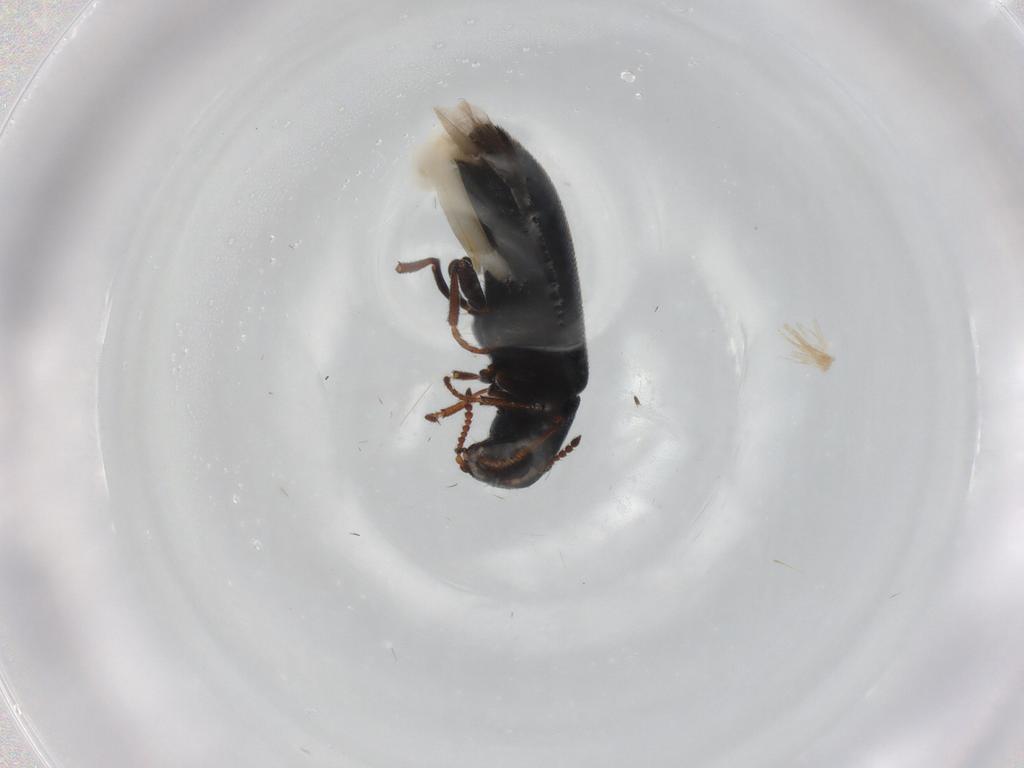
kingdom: Animalia
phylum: Arthropoda
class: Insecta
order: Coleoptera
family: Melyridae
